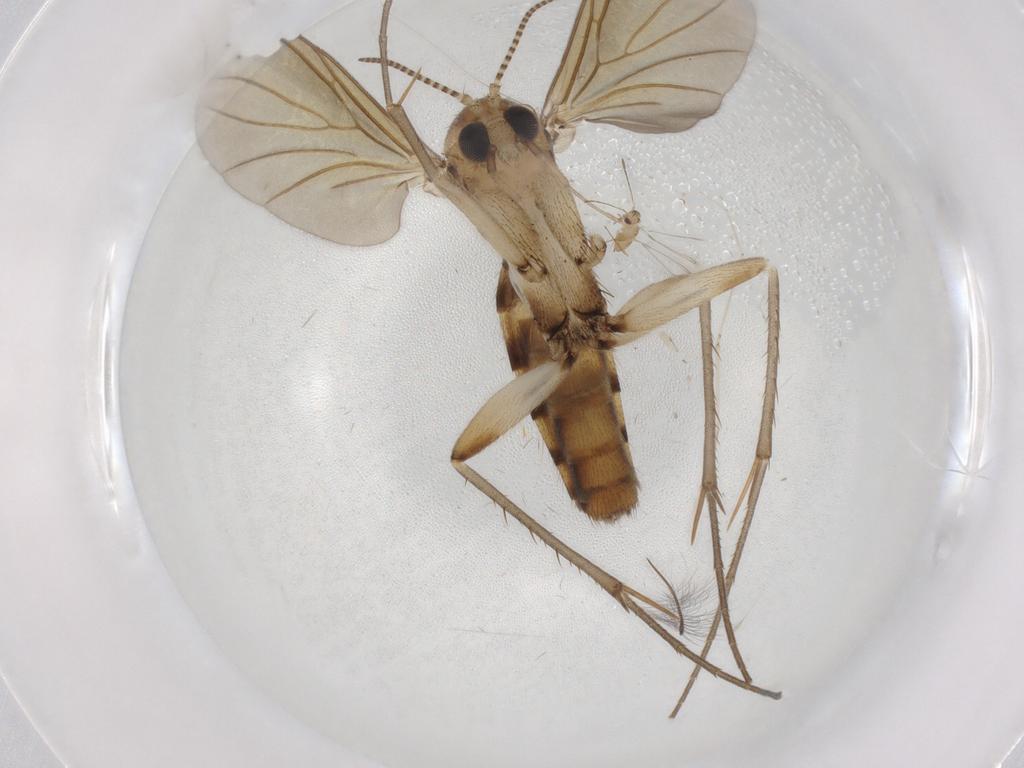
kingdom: Animalia
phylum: Arthropoda
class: Insecta
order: Diptera
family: Mycetophilidae
